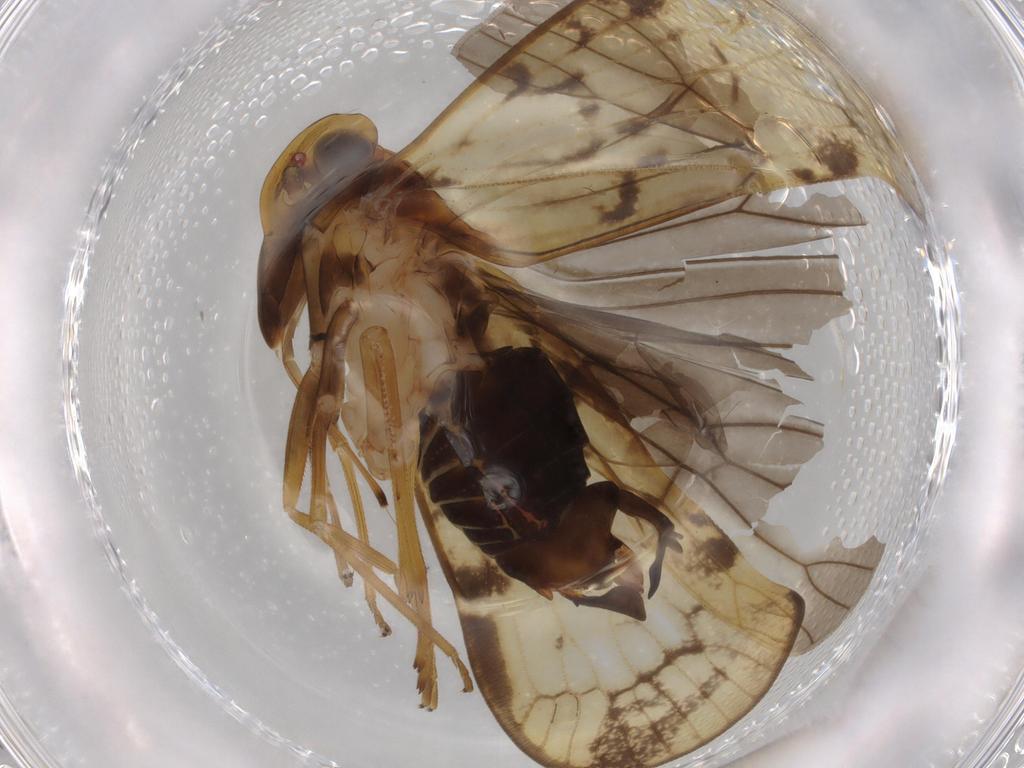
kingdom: Animalia
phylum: Arthropoda
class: Insecta
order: Hemiptera
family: Cixiidae
